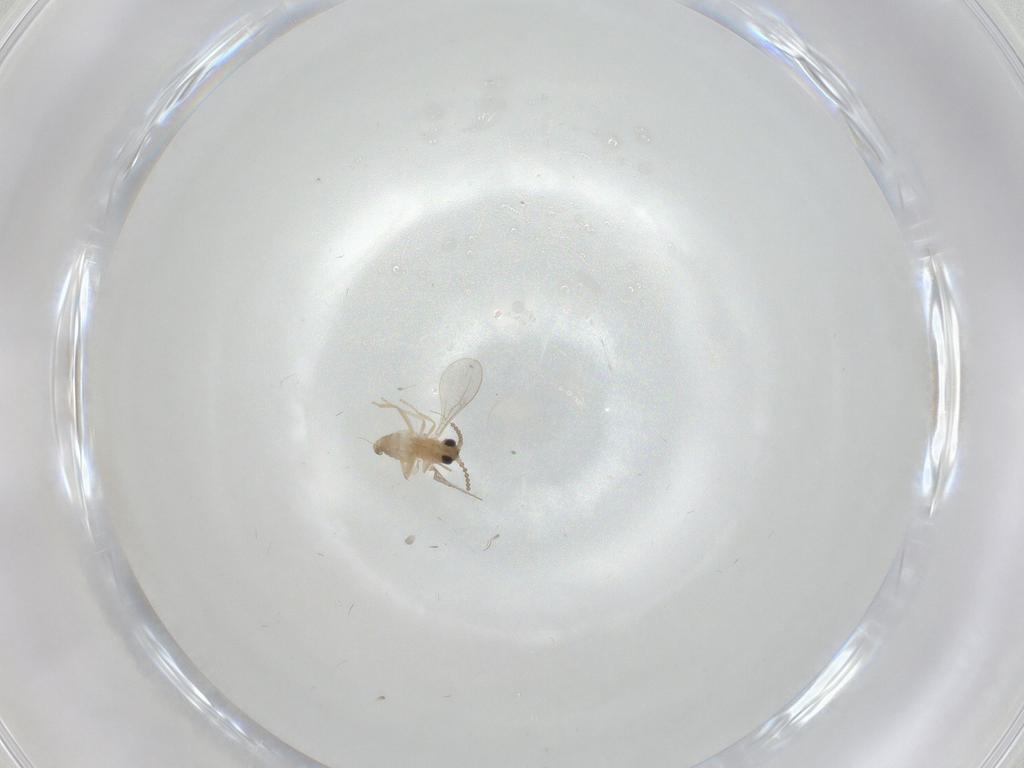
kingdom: Animalia
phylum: Arthropoda
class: Insecta
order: Diptera
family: Cecidomyiidae
